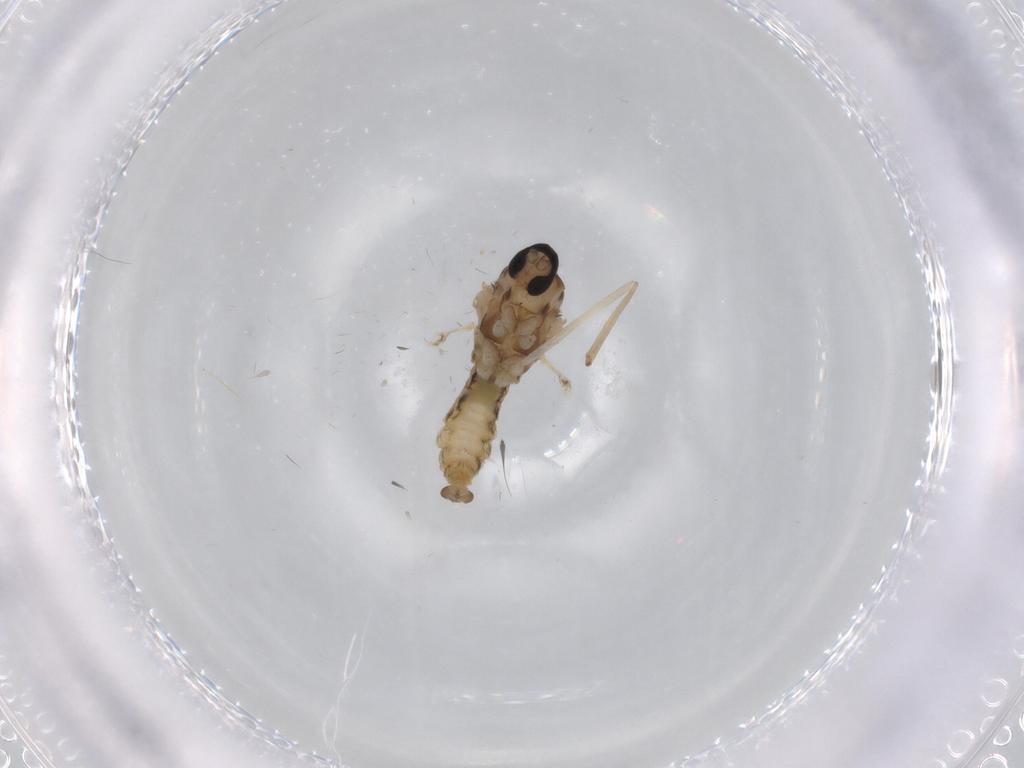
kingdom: Animalia
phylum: Arthropoda
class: Insecta
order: Diptera
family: Cecidomyiidae
